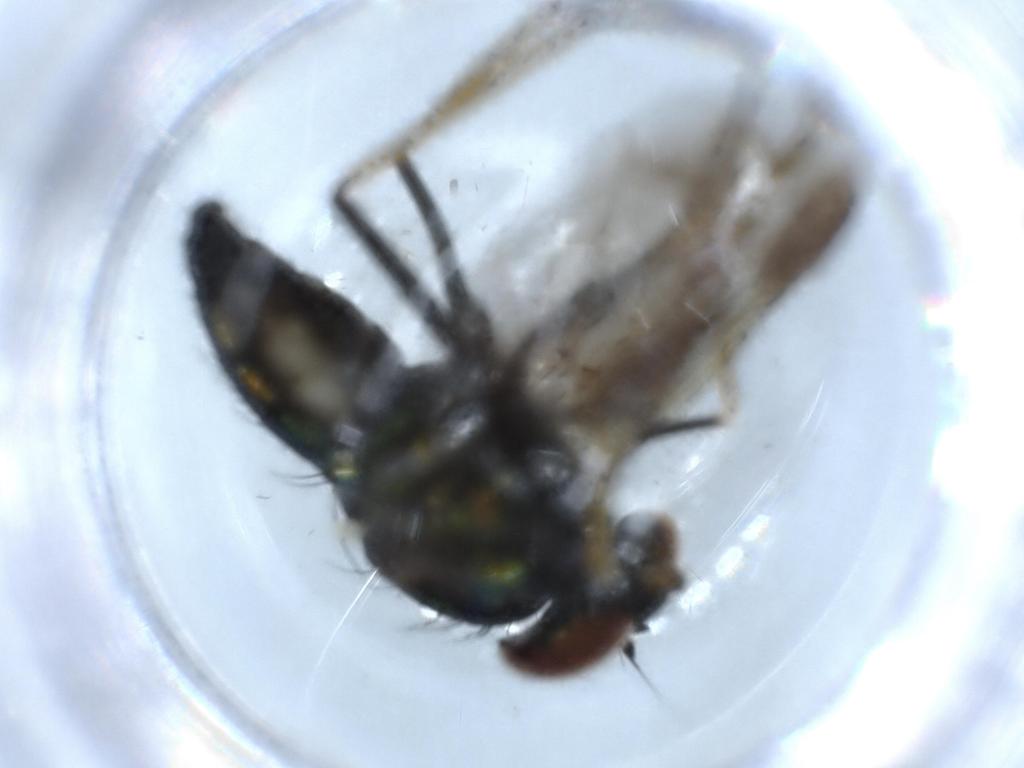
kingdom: Animalia
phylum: Arthropoda
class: Insecta
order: Diptera
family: Dolichopodidae
